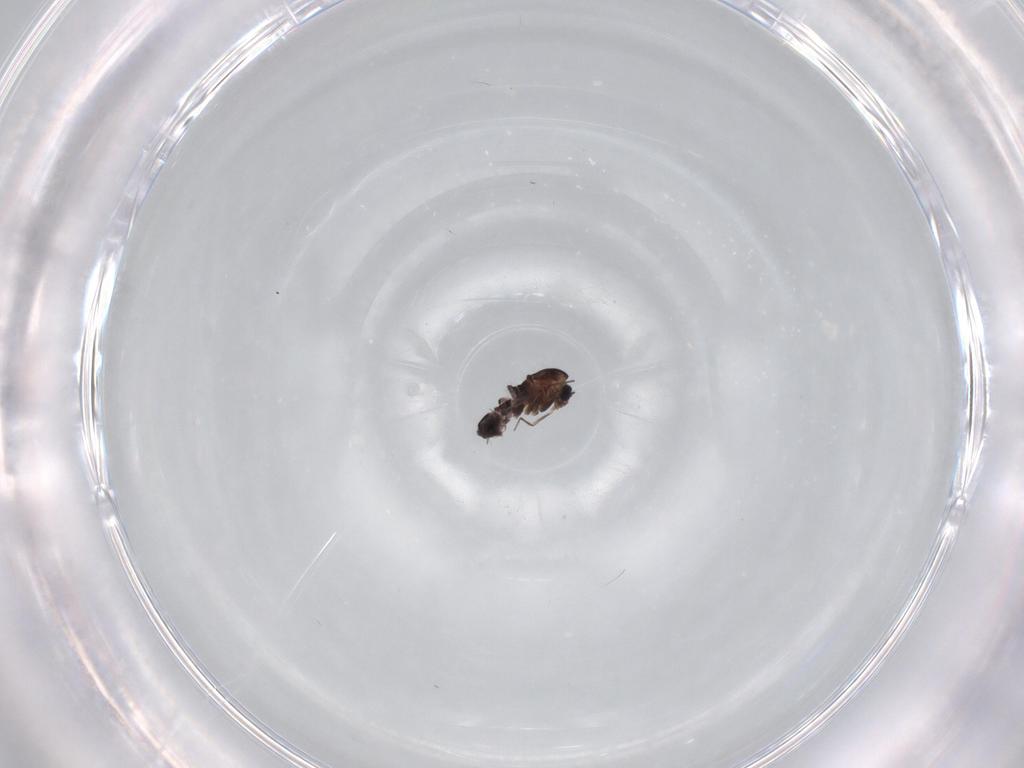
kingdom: Animalia
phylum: Arthropoda
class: Insecta
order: Diptera
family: Chironomidae
